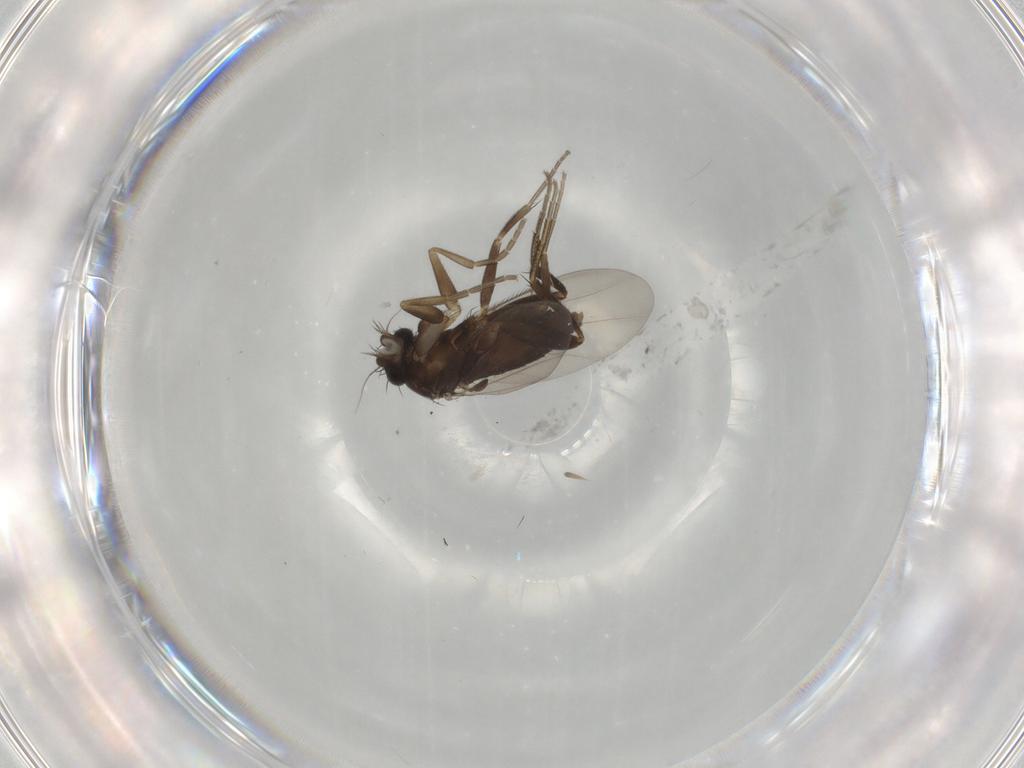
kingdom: Animalia
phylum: Arthropoda
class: Insecta
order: Diptera
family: Phoridae
